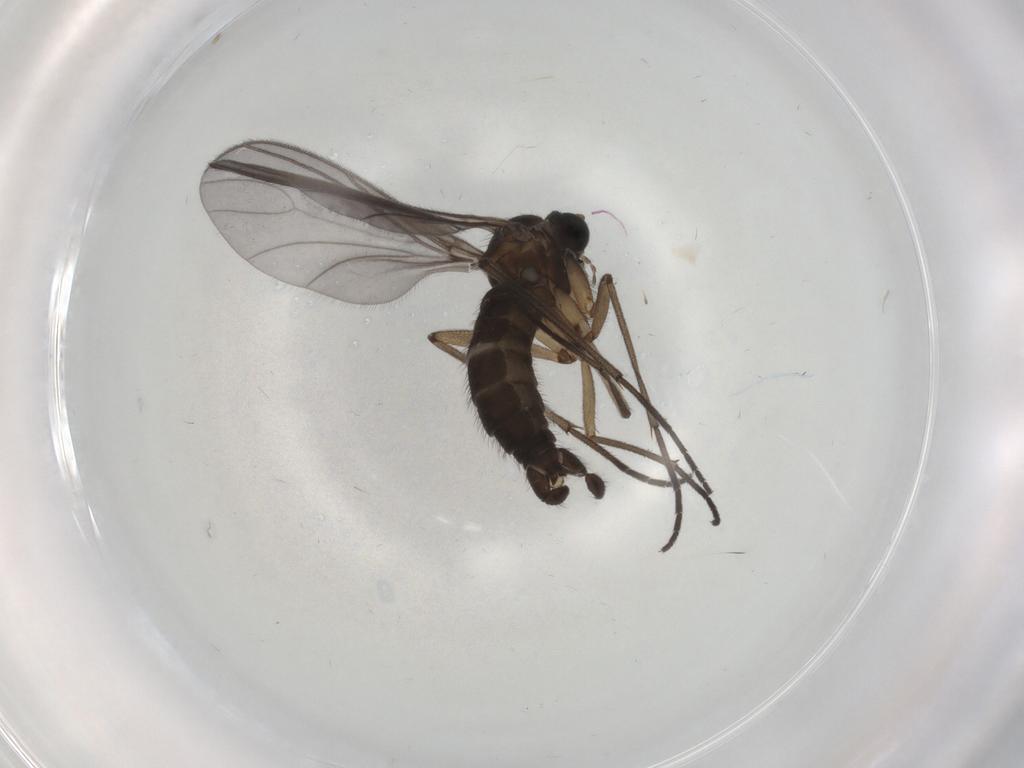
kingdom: Animalia
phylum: Arthropoda
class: Insecta
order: Diptera
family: Sciaridae
